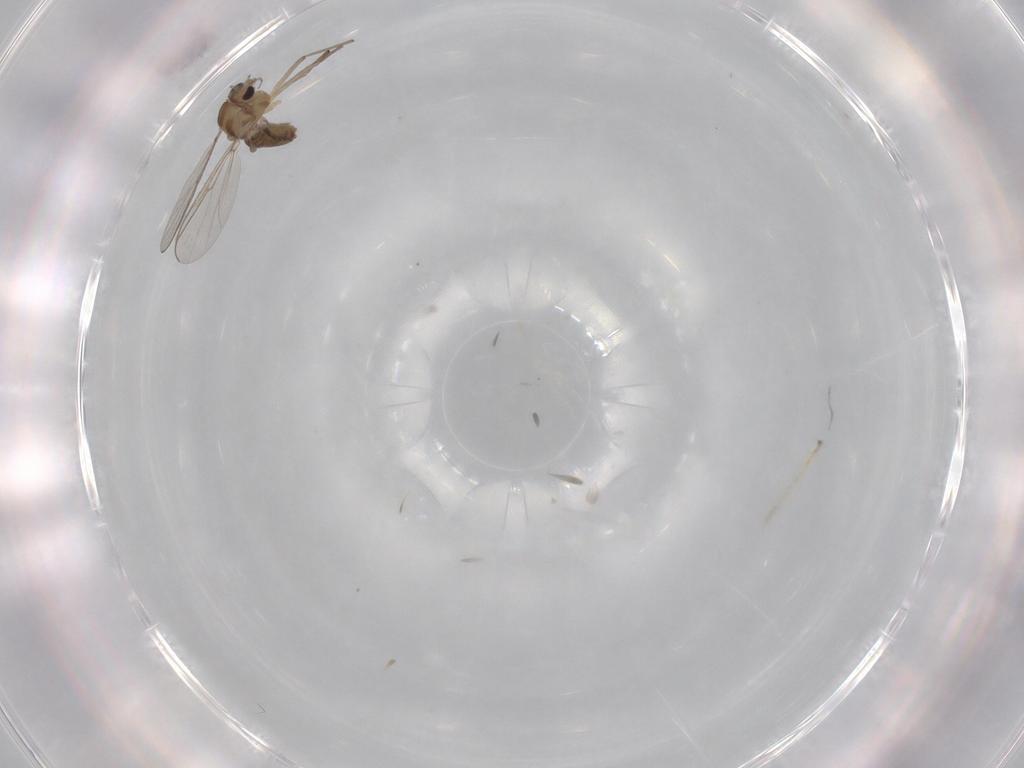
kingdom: Animalia
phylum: Arthropoda
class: Insecta
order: Diptera
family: Chironomidae
